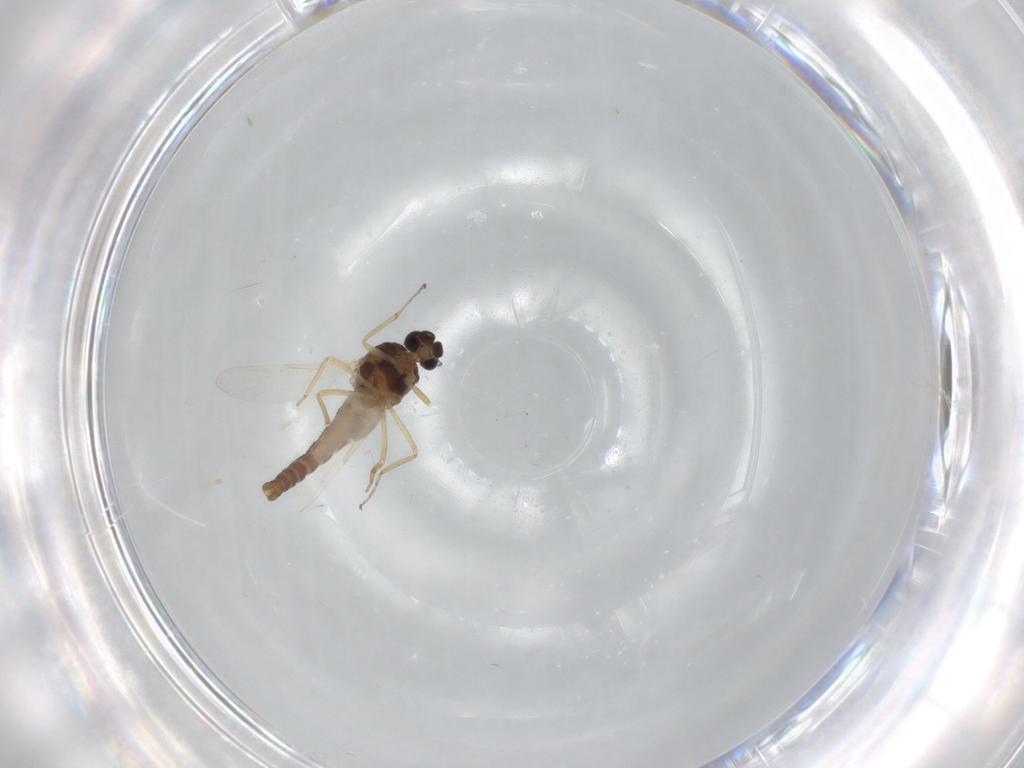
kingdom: Animalia
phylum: Arthropoda
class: Insecta
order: Diptera
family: Ceratopogonidae
